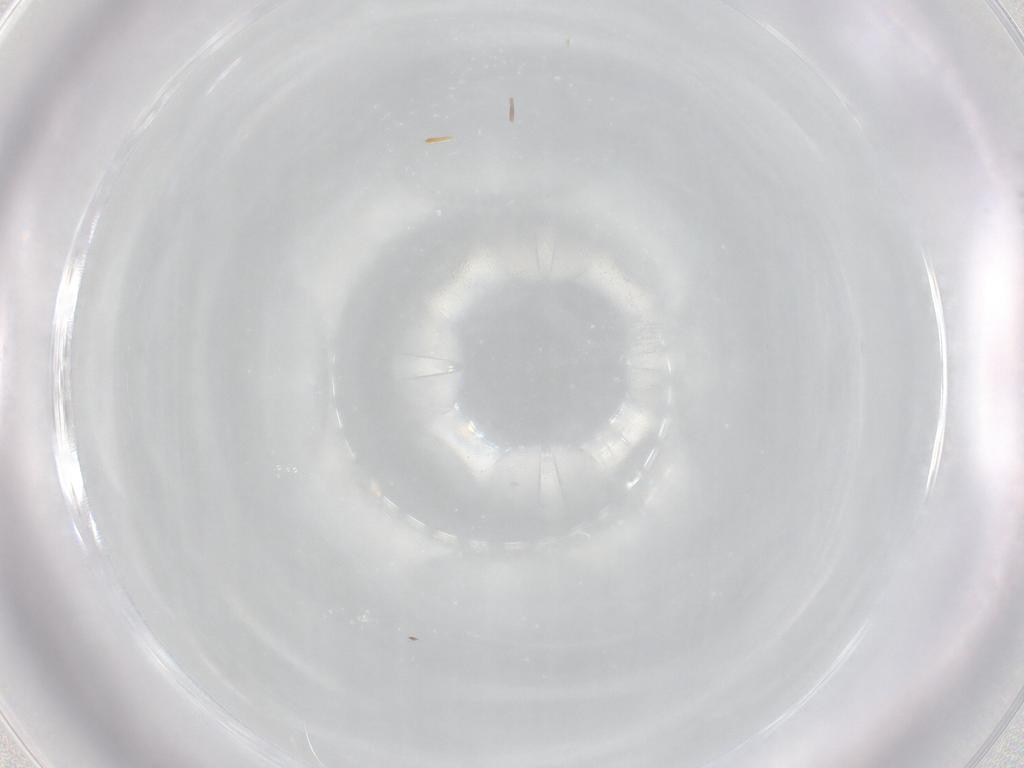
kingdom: Animalia
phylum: Arthropoda
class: Insecta
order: Diptera
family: Cecidomyiidae
